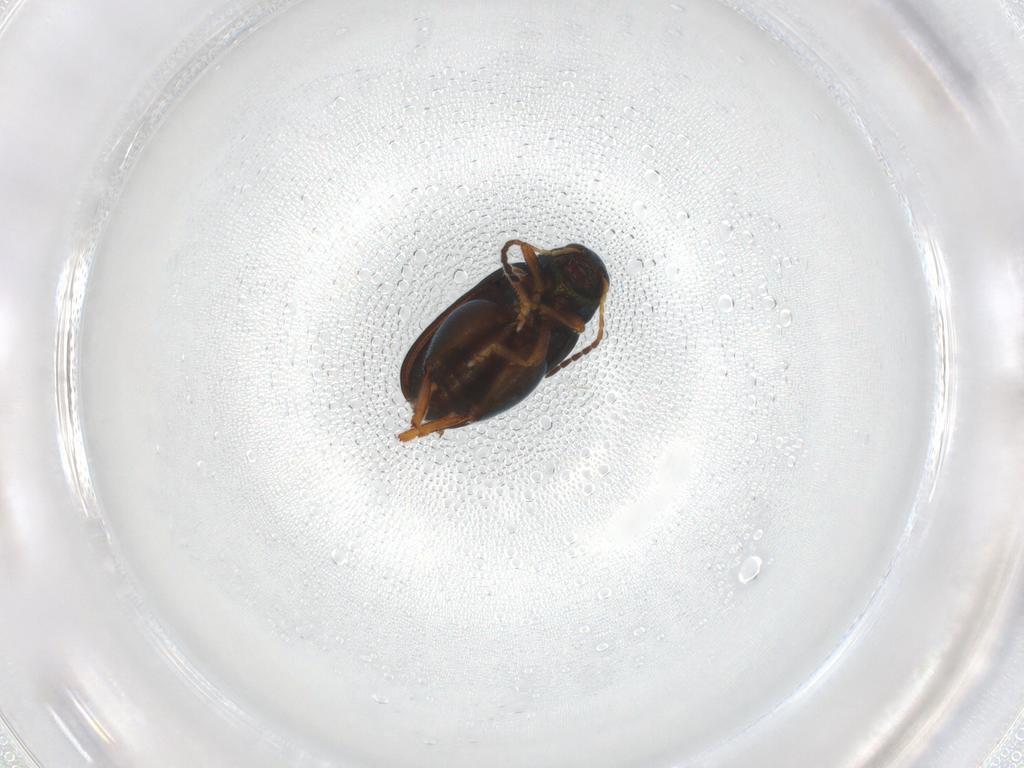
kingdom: Animalia
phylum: Arthropoda
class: Insecta
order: Coleoptera
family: Chrysomelidae
